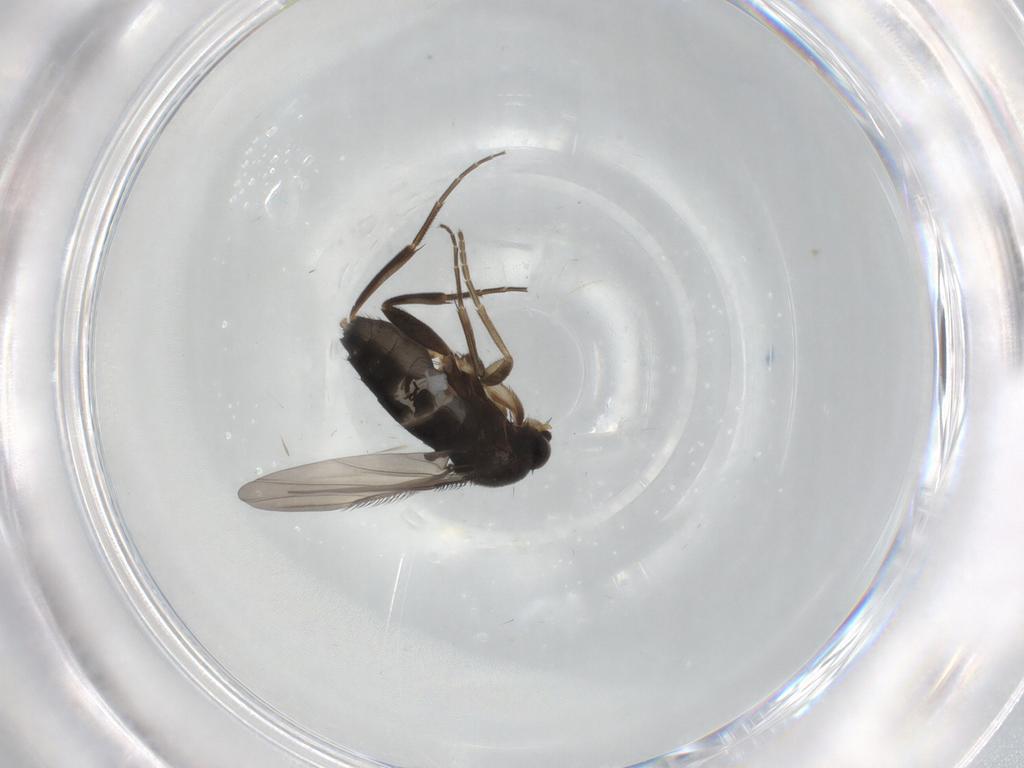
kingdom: Animalia
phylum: Arthropoda
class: Insecta
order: Diptera
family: Phoridae
